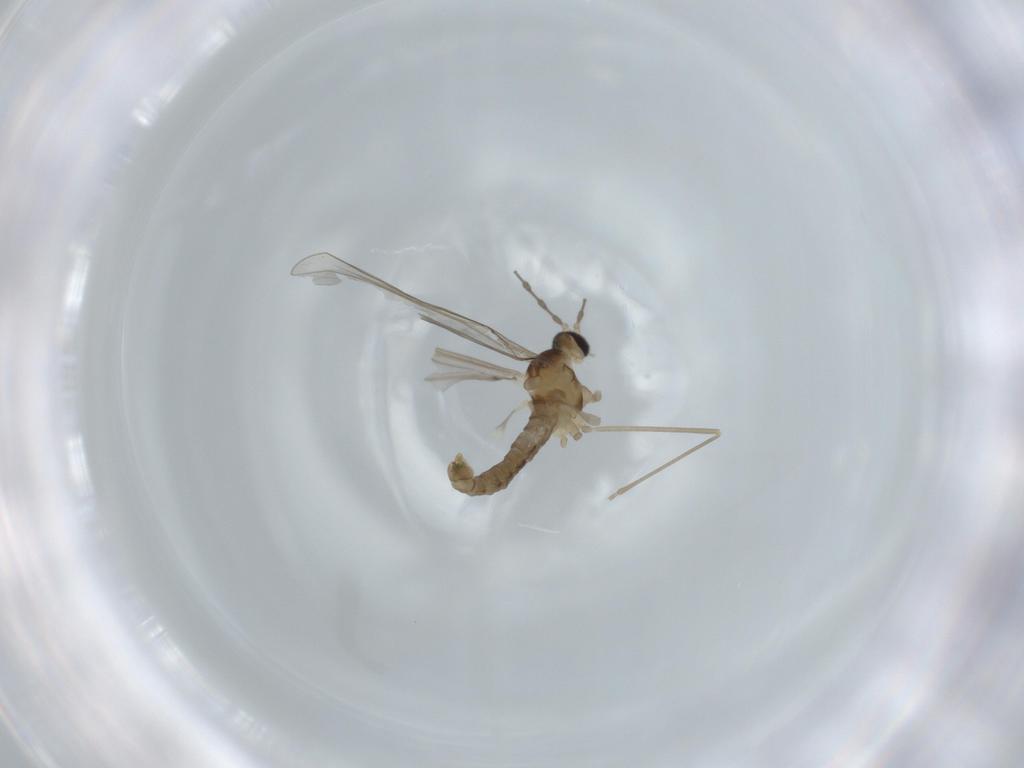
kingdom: Animalia
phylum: Arthropoda
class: Insecta
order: Diptera
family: Cecidomyiidae
